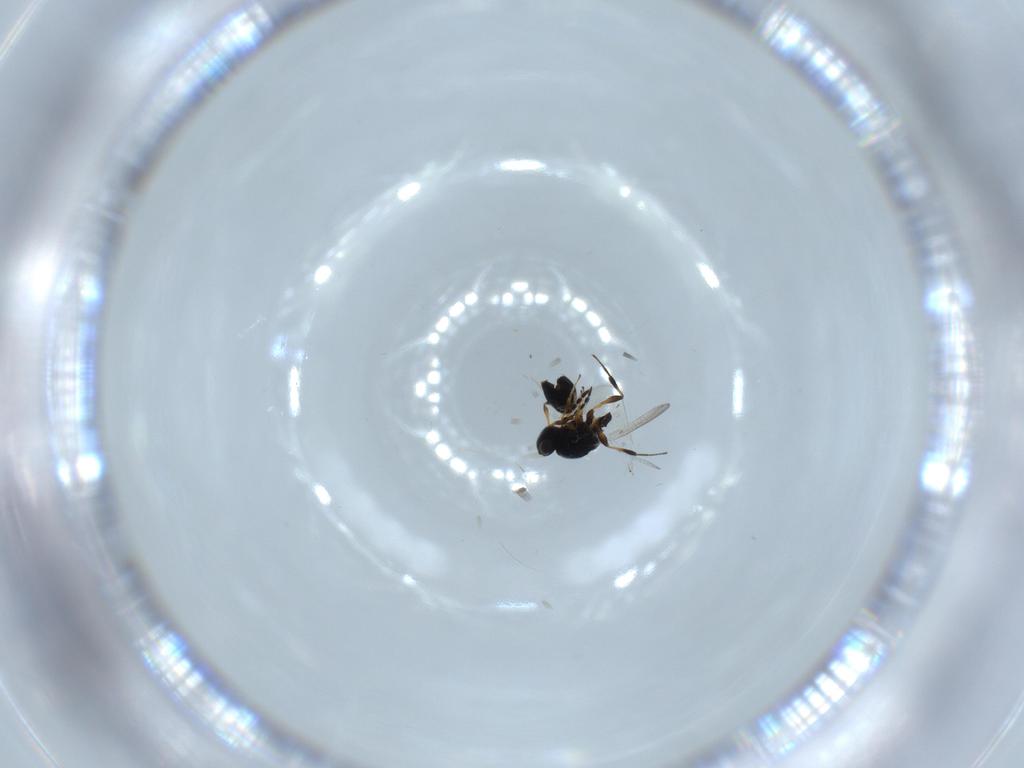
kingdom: Animalia
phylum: Arthropoda
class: Insecta
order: Hymenoptera
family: Platygastridae
